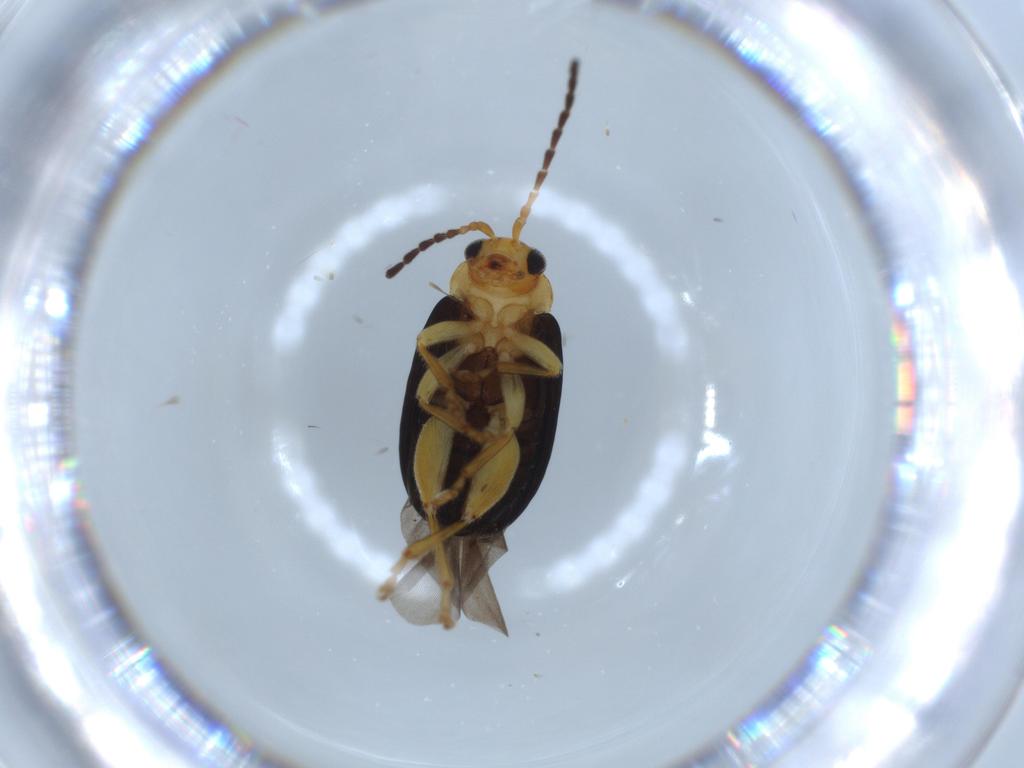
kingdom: Animalia
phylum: Arthropoda
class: Insecta
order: Coleoptera
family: Chrysomelidae
